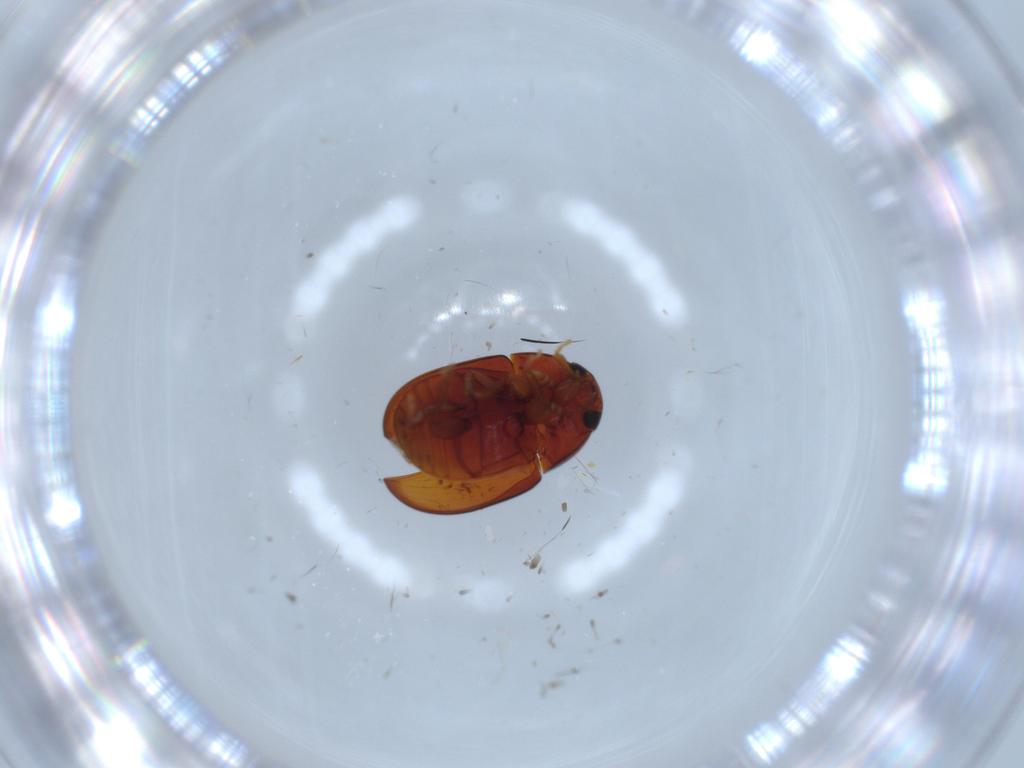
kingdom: Animalia
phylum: Arthropoda
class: Insecta
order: Coleoptera
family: Phalacridae
